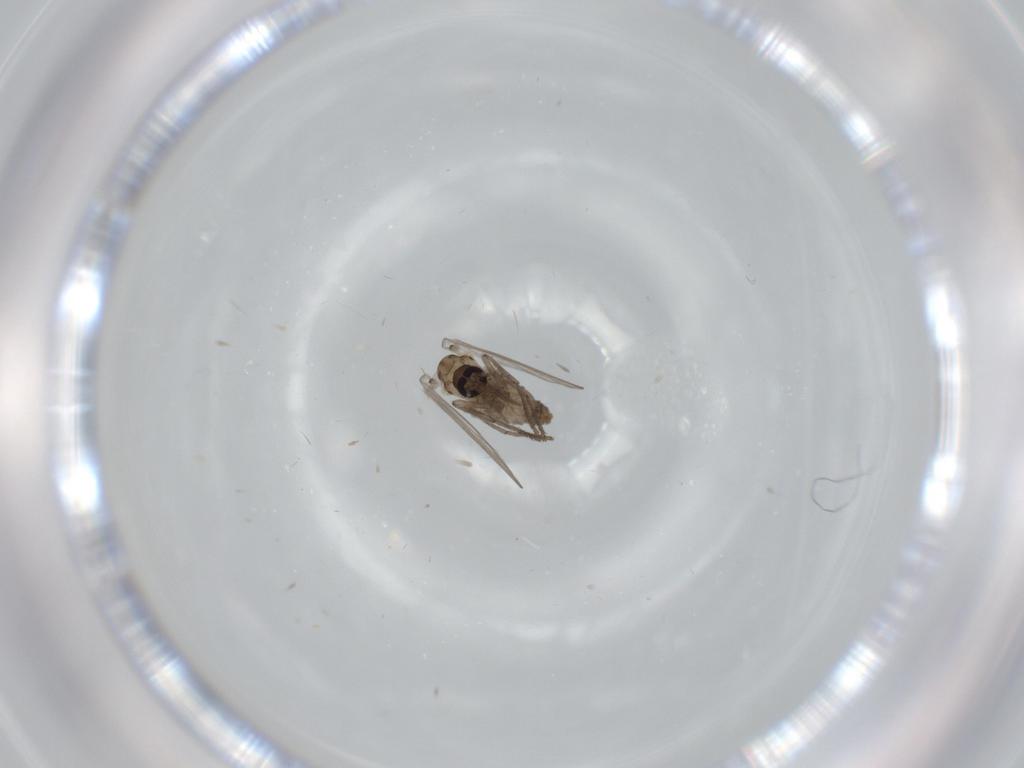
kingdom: Animalia
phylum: Arthropoda
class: Insecta
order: Diptera
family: Psychodidae
